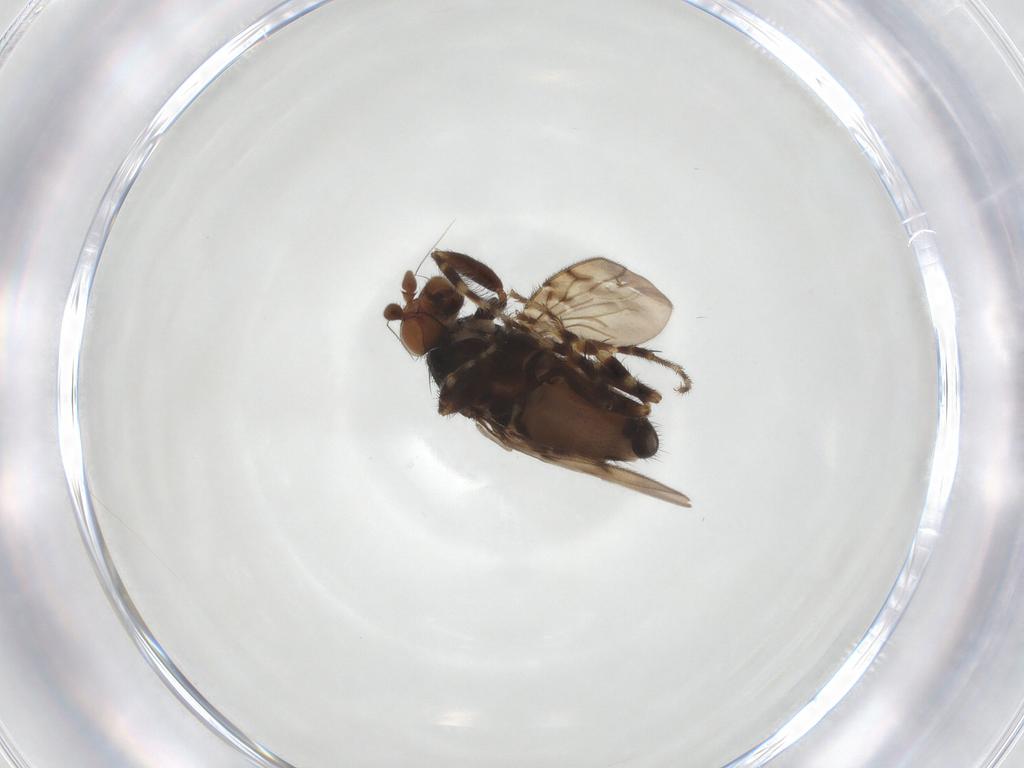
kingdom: Animalia
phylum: Arthropoda
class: Insecta
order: Diptera
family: Sphaeroceridae
